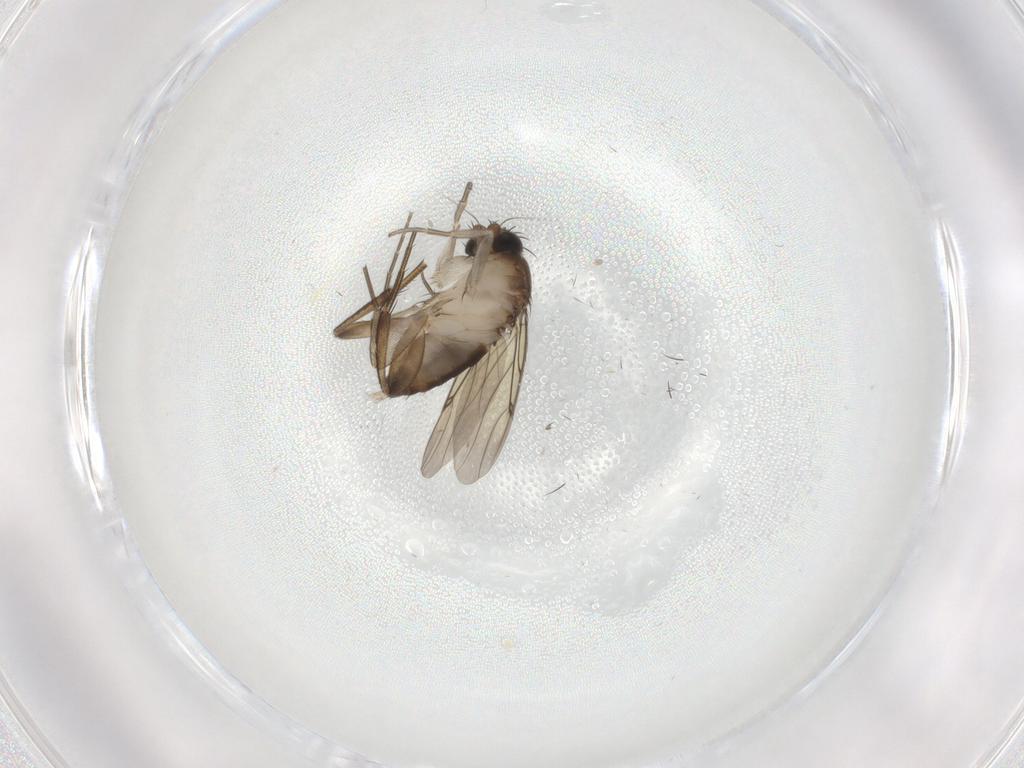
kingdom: Animalia
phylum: Arthropoda
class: Insecta
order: Diptera
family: Phoridae
